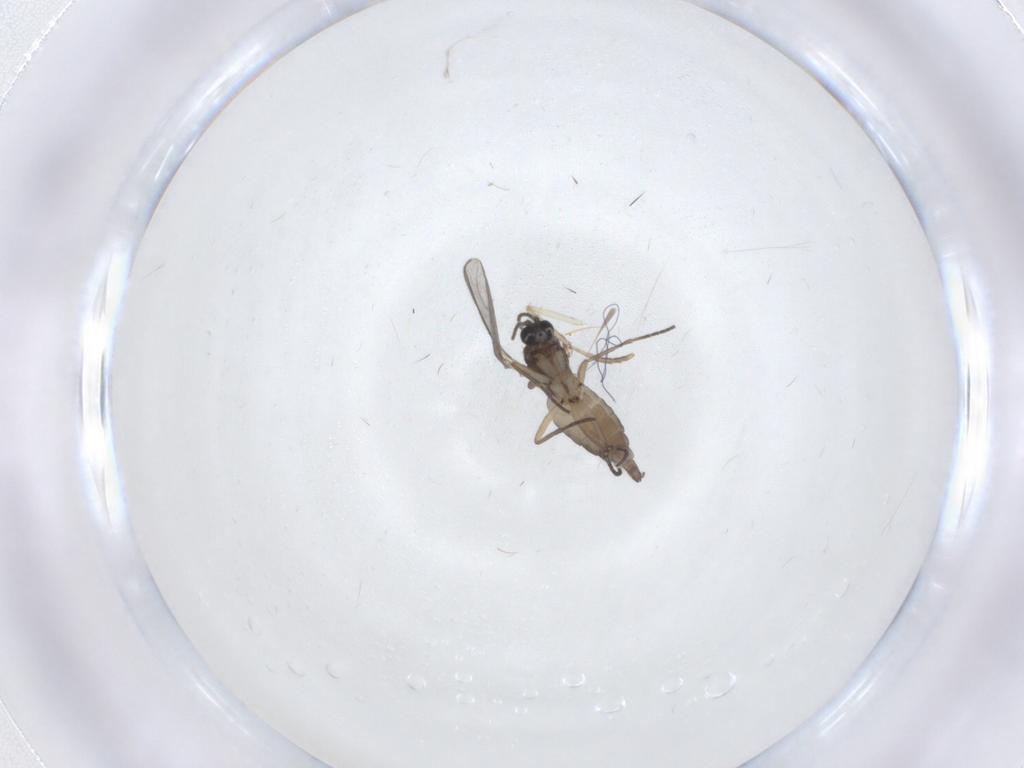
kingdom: Animalia
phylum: Arthropoda
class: Insecta
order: Diptera
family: Sciaridae
